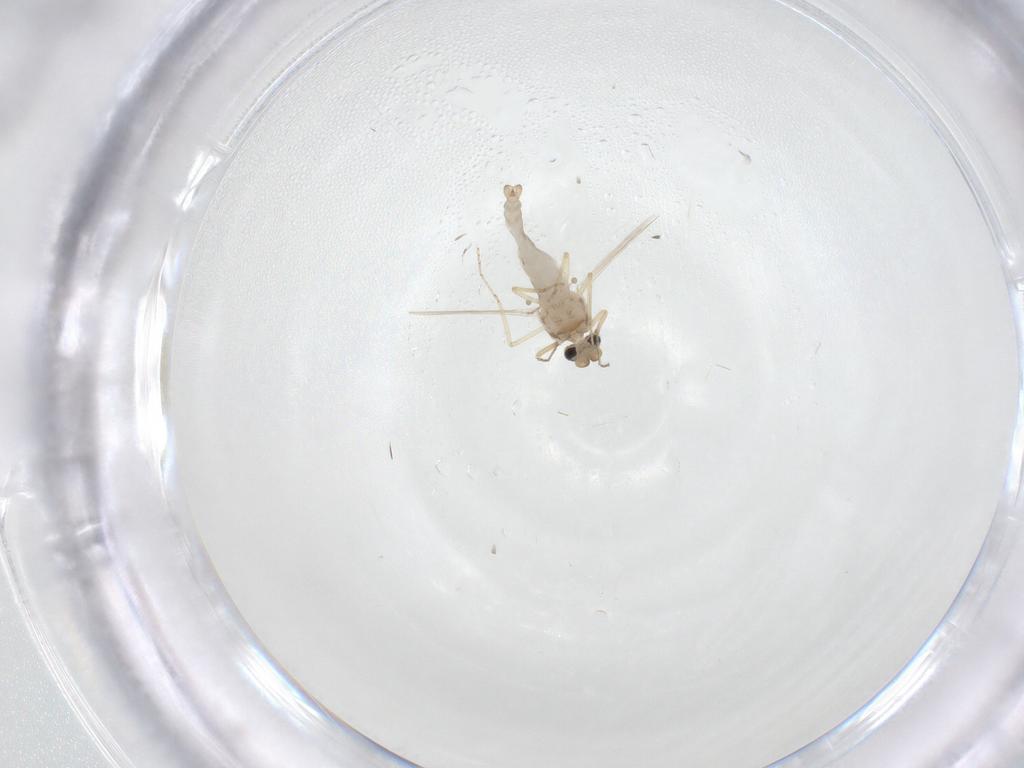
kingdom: Animalia
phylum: Arthropoda
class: Insecta
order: Diptera
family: Ceratopogonidae
